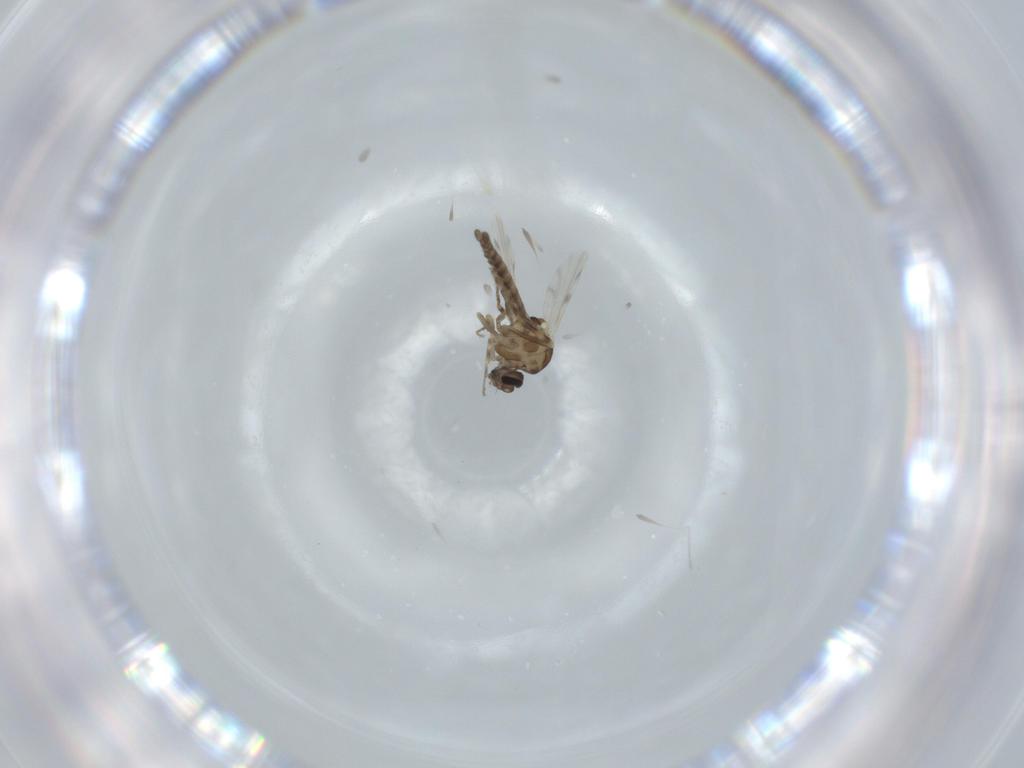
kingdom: Animalia
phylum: Arthropoda
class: Insecta
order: Diptera
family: Ceratopogonidae
